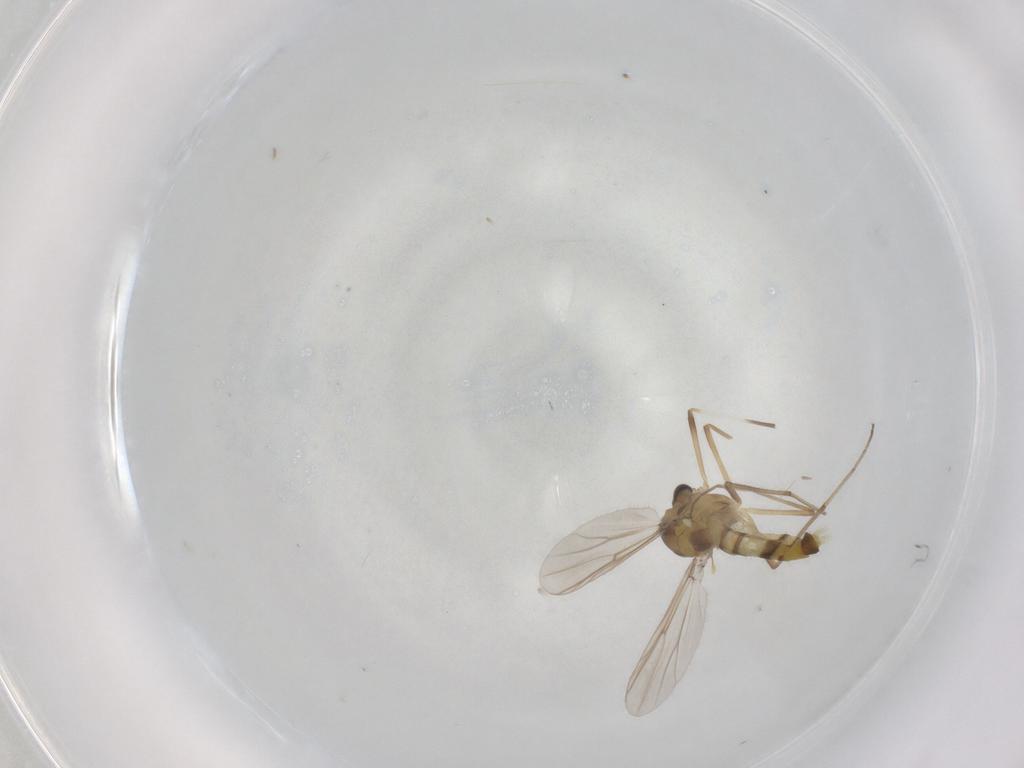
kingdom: Animalia
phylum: Arthropoda
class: Insecta
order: Diptera
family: Chironomidae
